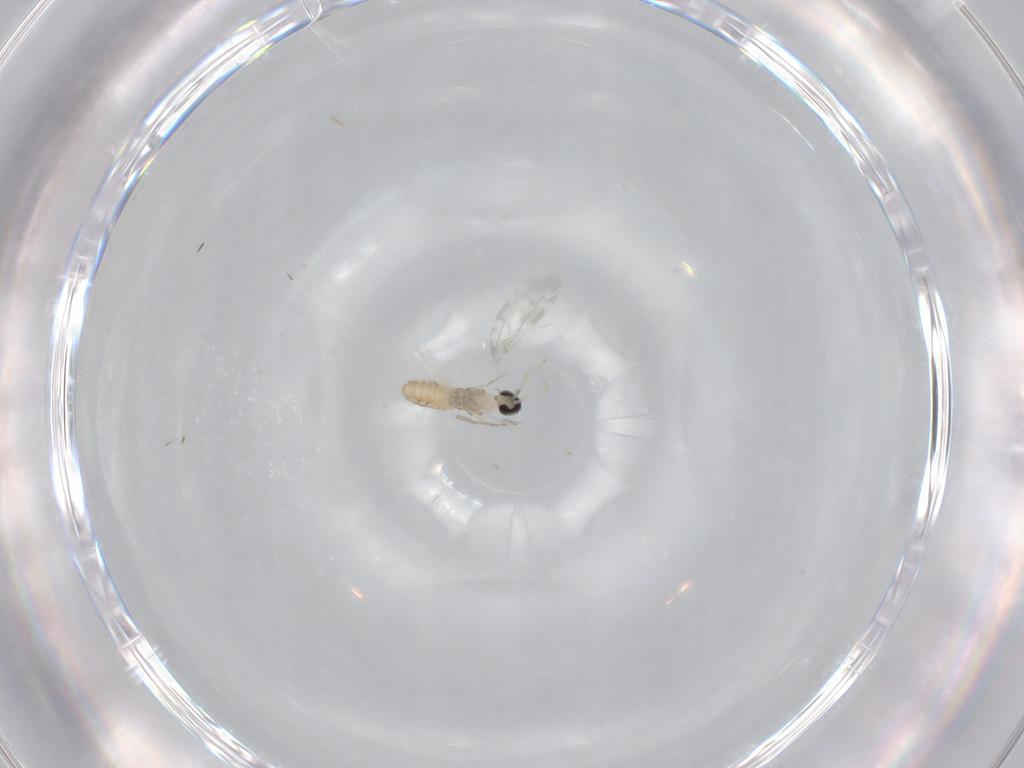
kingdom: Animalia
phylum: Arthropoda
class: Insecta
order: Diptera
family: Cecidomyiidae
